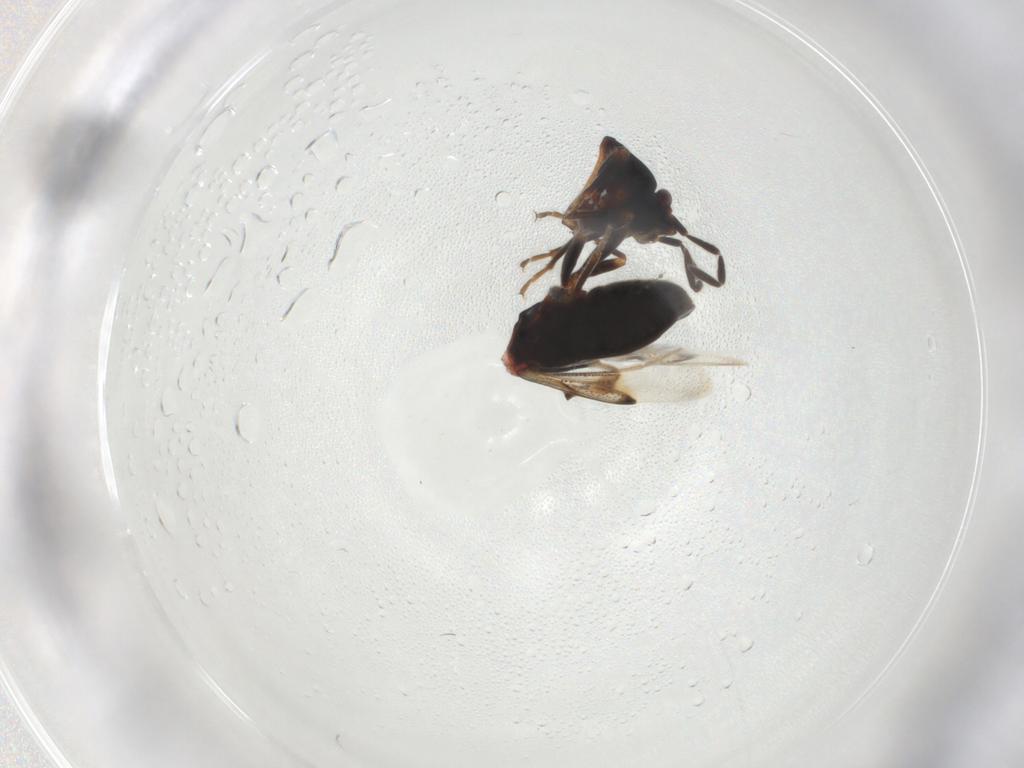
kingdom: Animalia
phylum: Arthropoda
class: Insecta
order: Hemiptera
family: Rhyparochromidae
